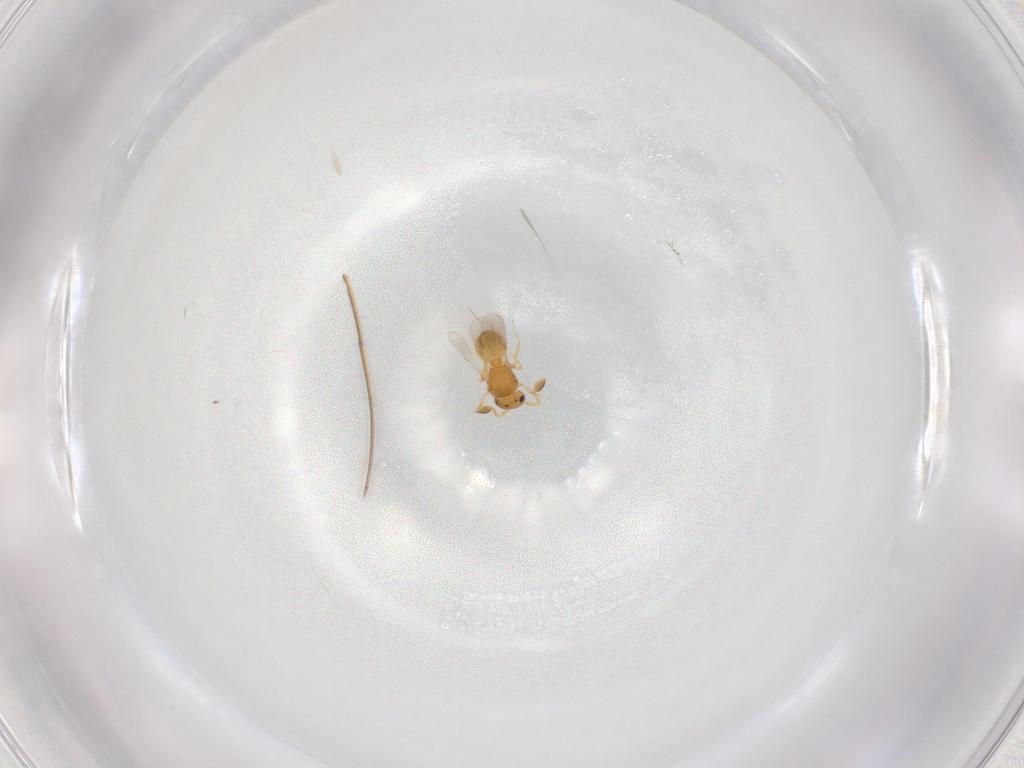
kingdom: Animalia
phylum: Arthropoda
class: Insecta
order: Hymenoptera
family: Scelionidae
